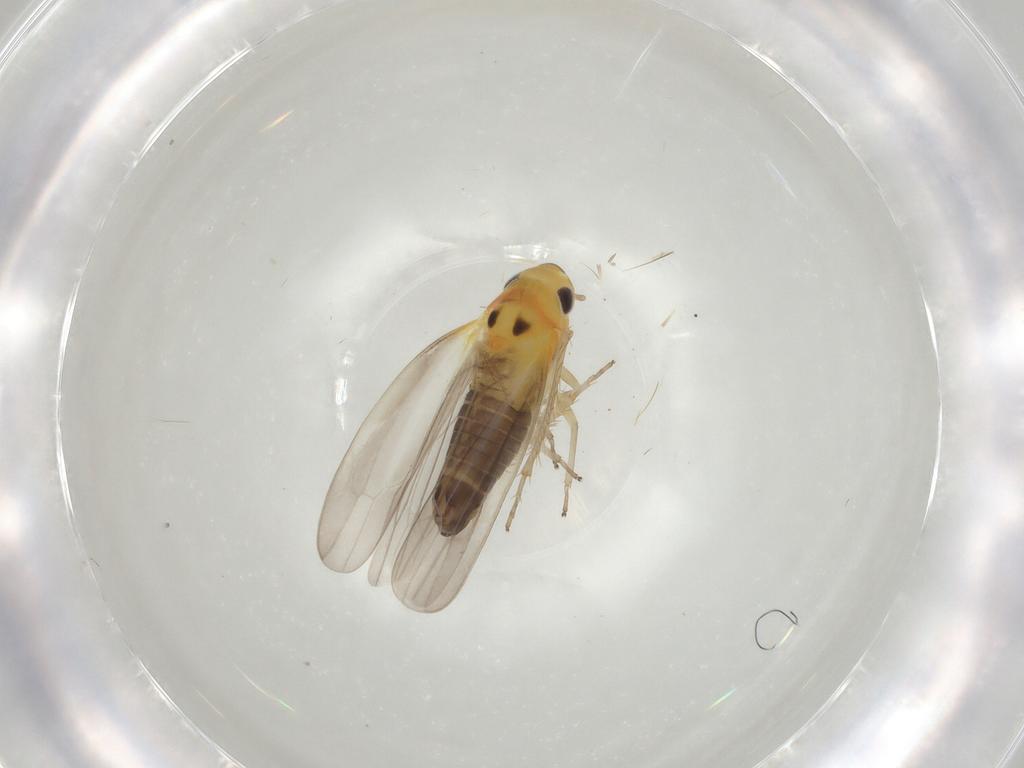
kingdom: Animalia
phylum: Arthropoda
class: Insecta
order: Hemiptera
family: Cicadellidae
